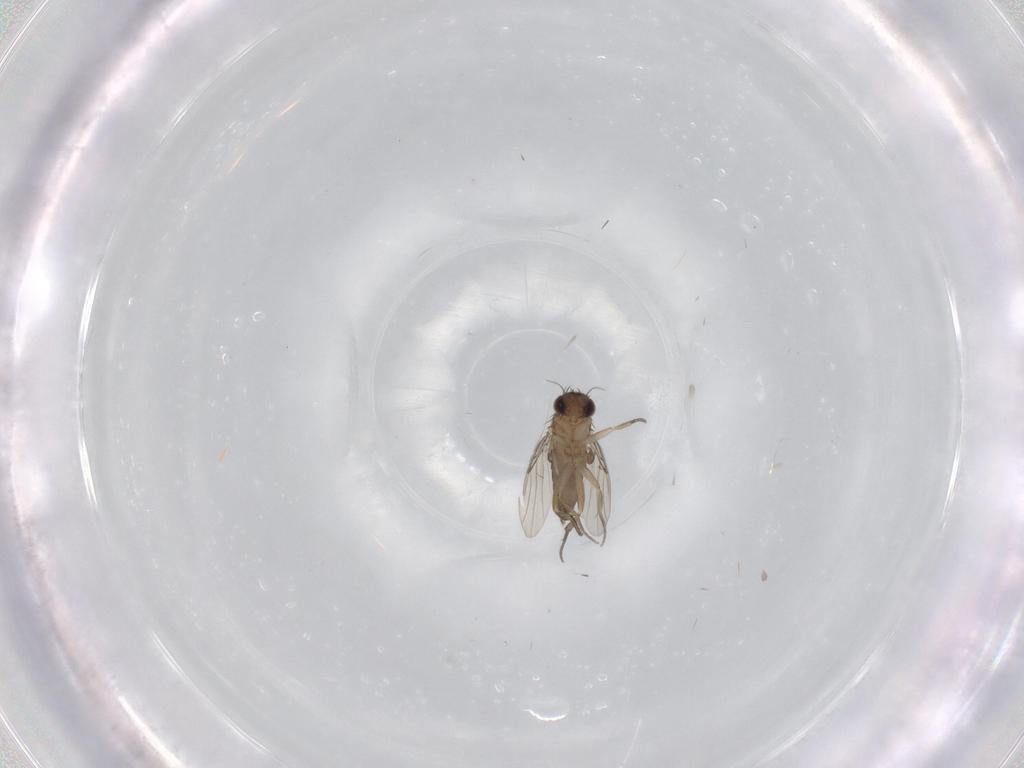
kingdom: Animalia
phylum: Arthropoda
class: Insecta
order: Diptera
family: Phoridae
